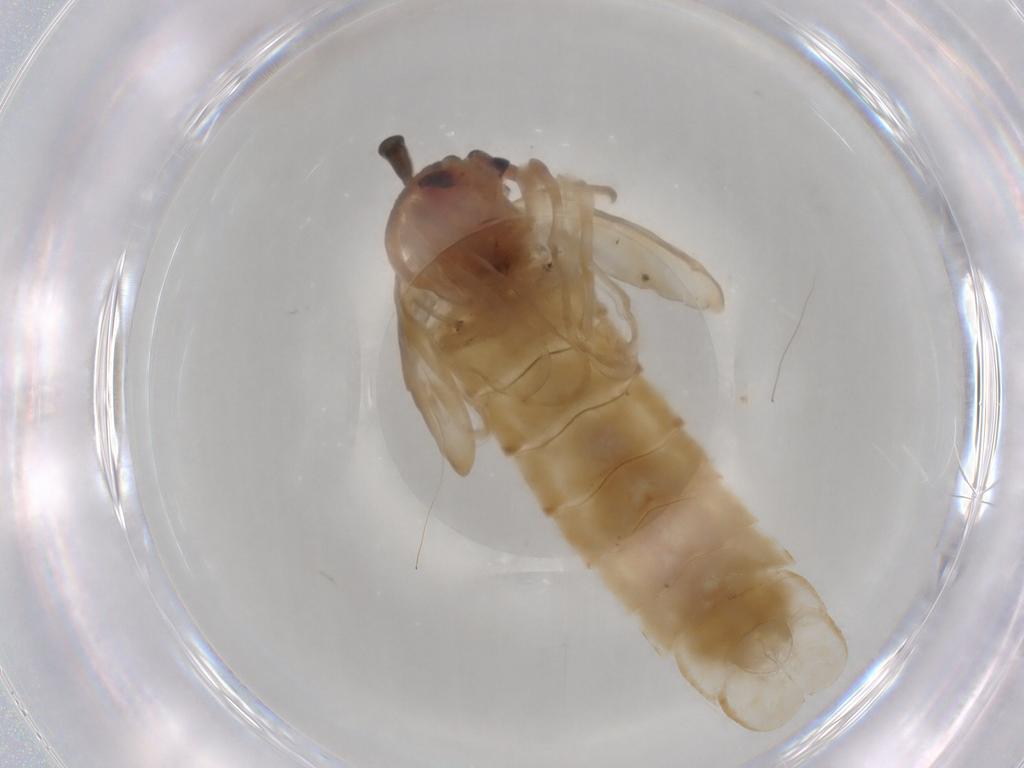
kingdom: Animalia
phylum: Arthropoda
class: Insecta
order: Diptera
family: Chironomidae
